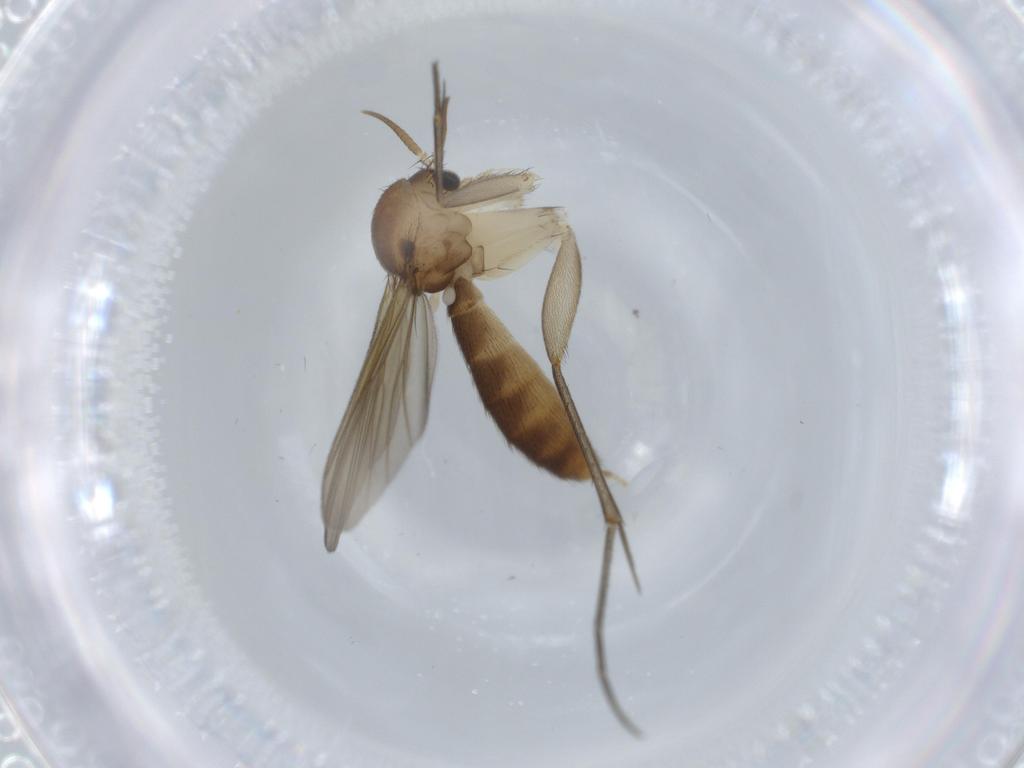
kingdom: Animalia
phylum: Arthropoda
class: Insecta
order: Diptera
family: Mycetophilidae
